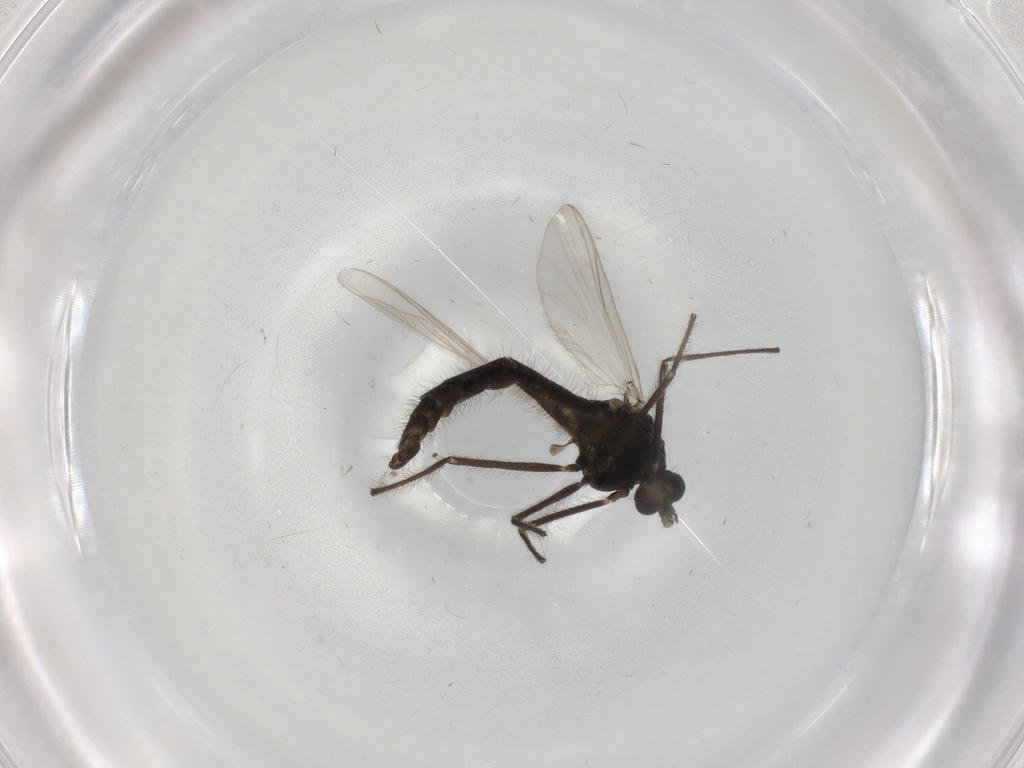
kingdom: Animalia
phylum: Arthropoda
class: Insecta
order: Diptera
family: Chironomidae
